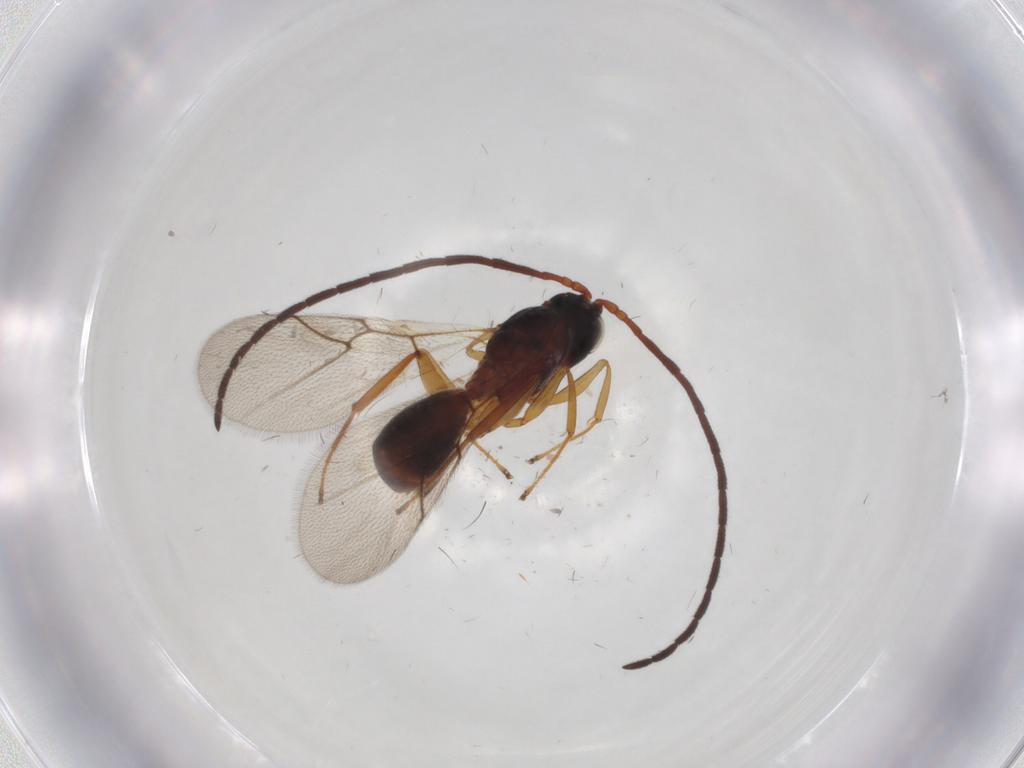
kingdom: Animalia
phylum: Arthropoda
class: Insecta
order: Hymenoptera
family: Figitidae
